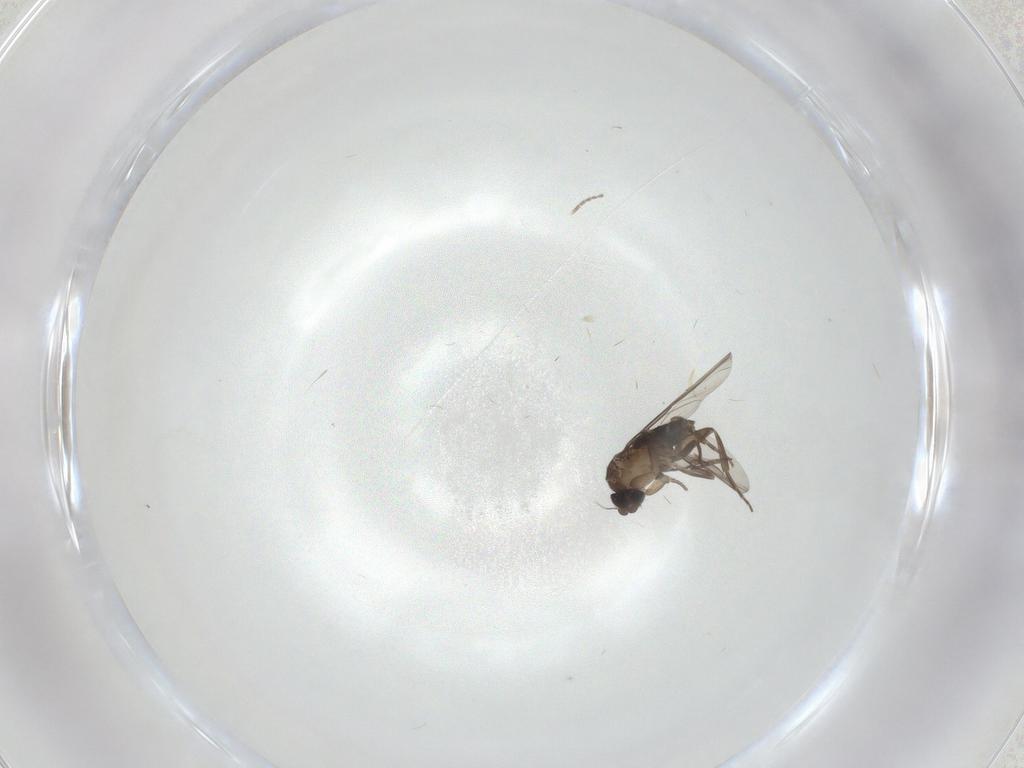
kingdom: Animalia
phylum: Arthropoda
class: Insecta
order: Diptera
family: Phoridae
